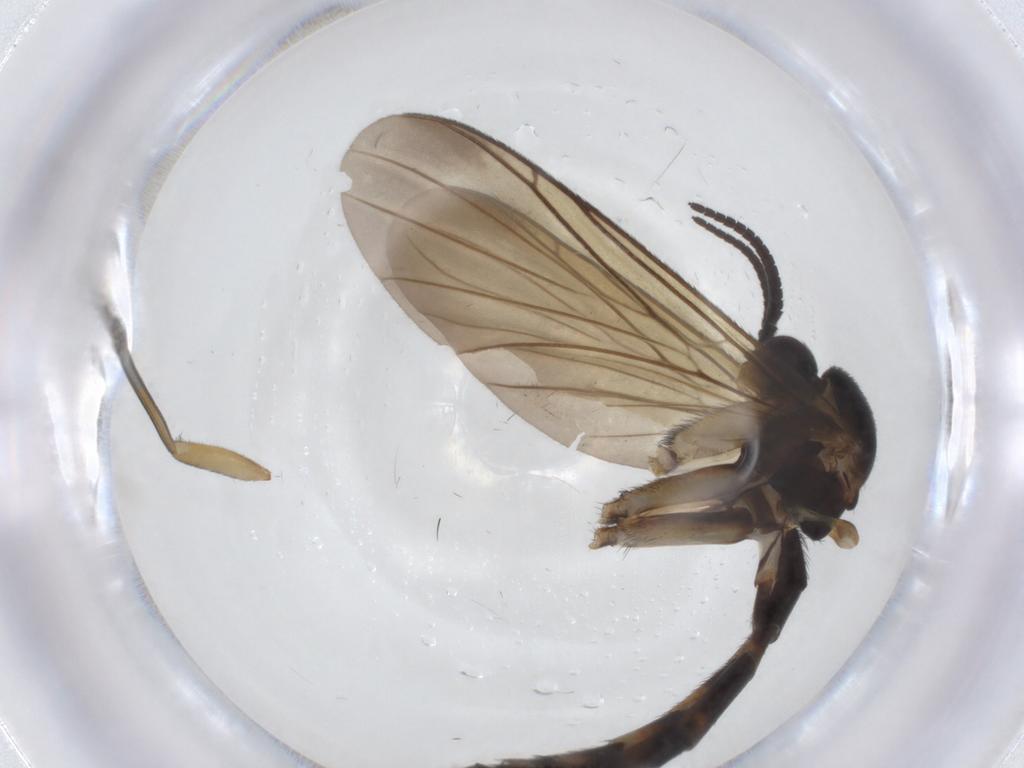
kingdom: Animalia
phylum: Arthropoda
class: Insecta
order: Diptera
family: Keroplatidae
